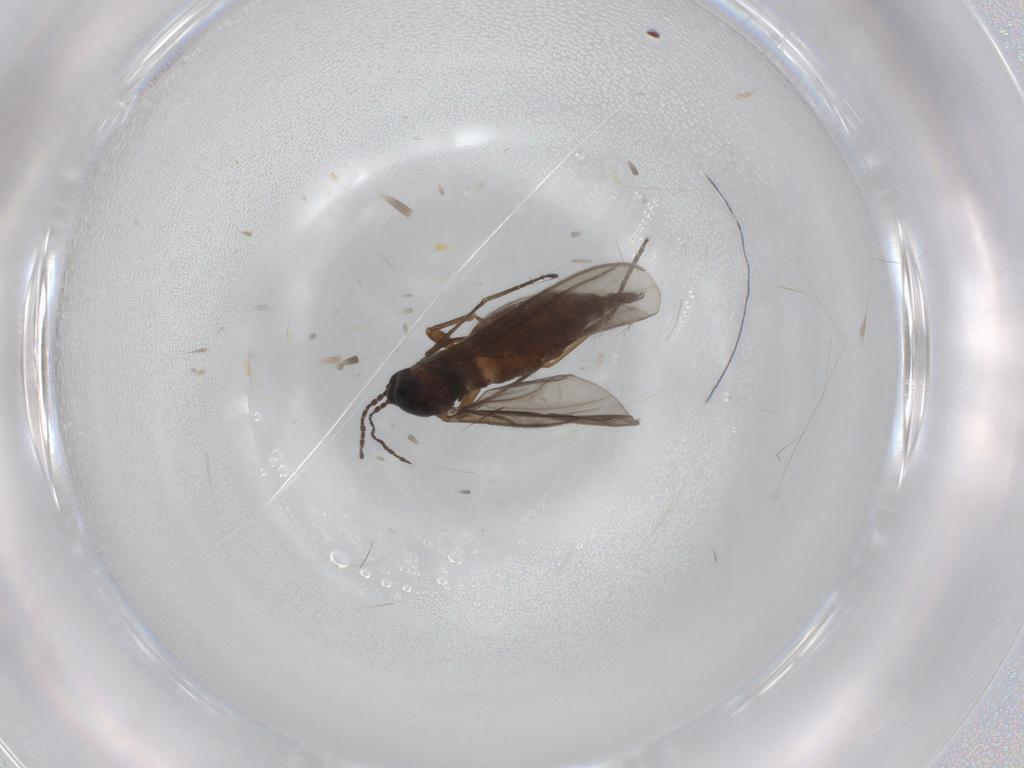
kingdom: Animalia
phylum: Arthropoda
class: Insecta
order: Diptera
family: Sciaridae
